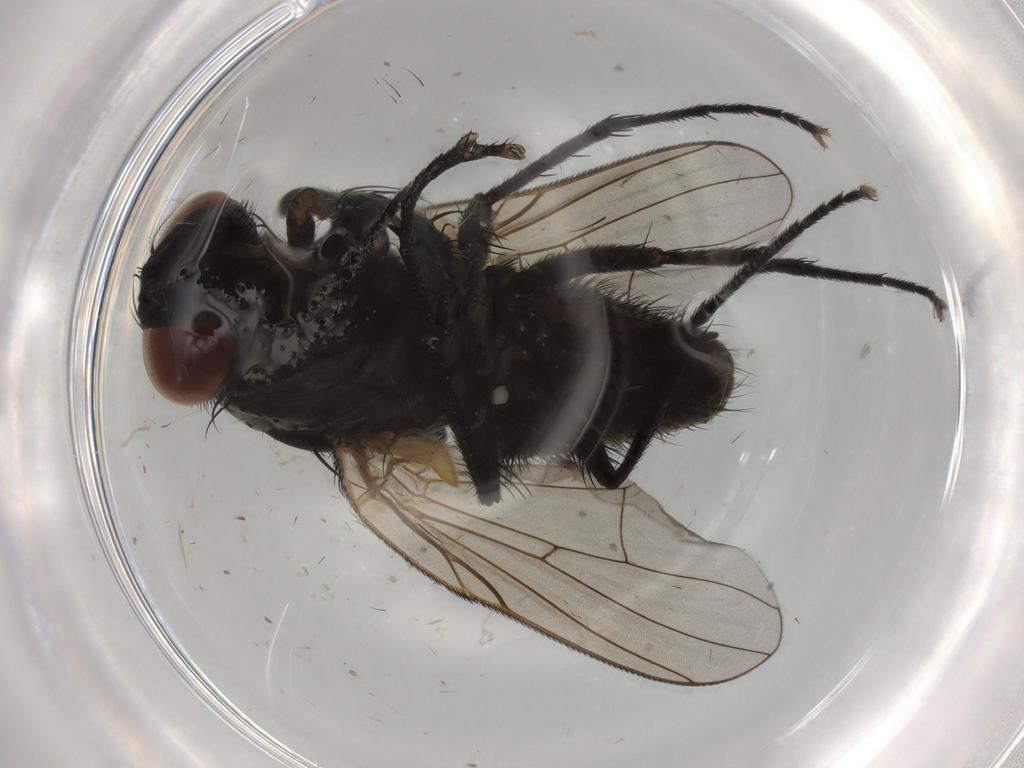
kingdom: Animalia
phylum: Arthropoda
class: Insecta
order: Diptera
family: Muscidae
